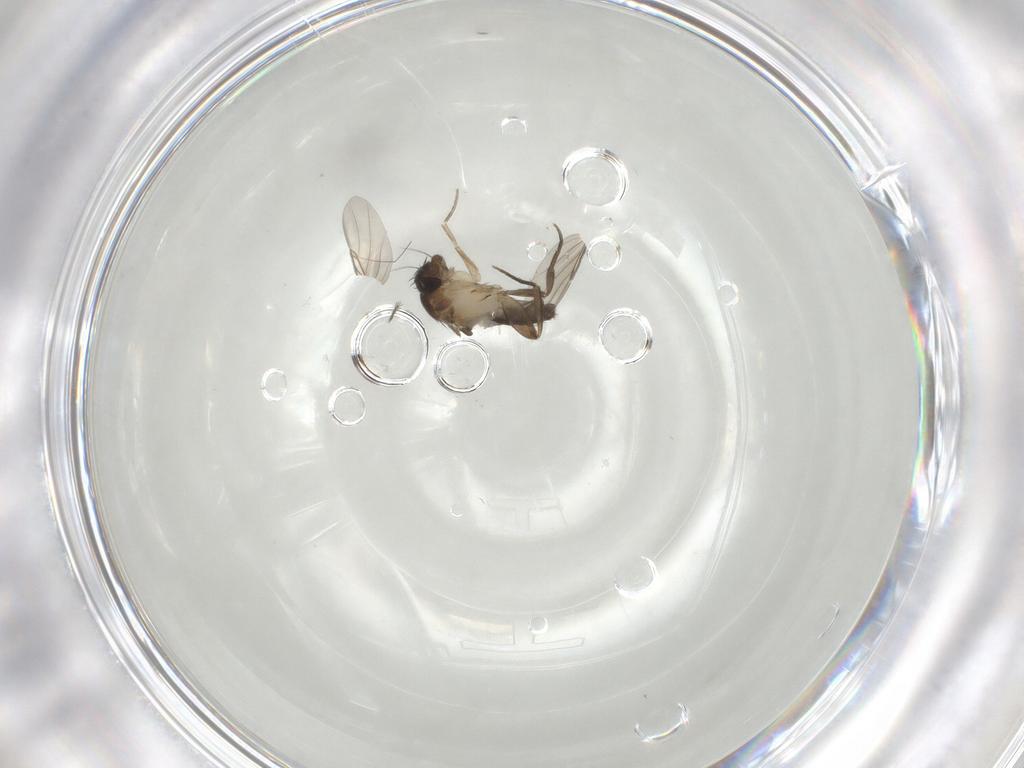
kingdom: Animalia
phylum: Arthropoda
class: Insecta
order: Diptera
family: Phoridae
